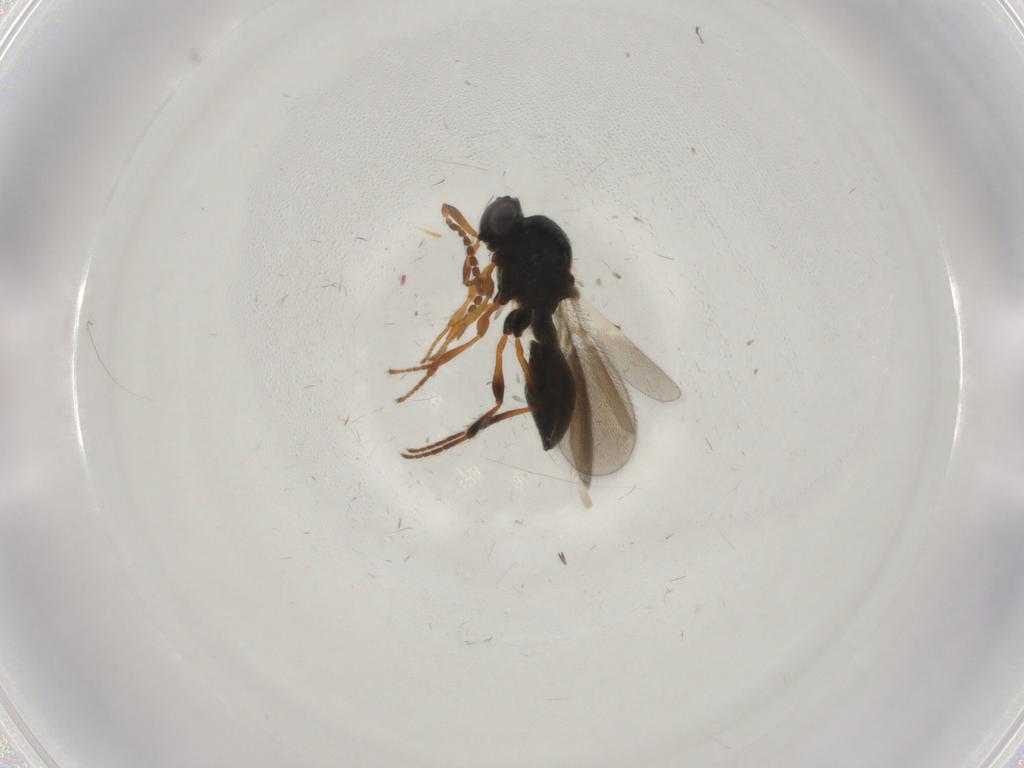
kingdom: Animalia
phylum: Arthropoda
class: Insecta
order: Hymenoptera
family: Platygastridae
